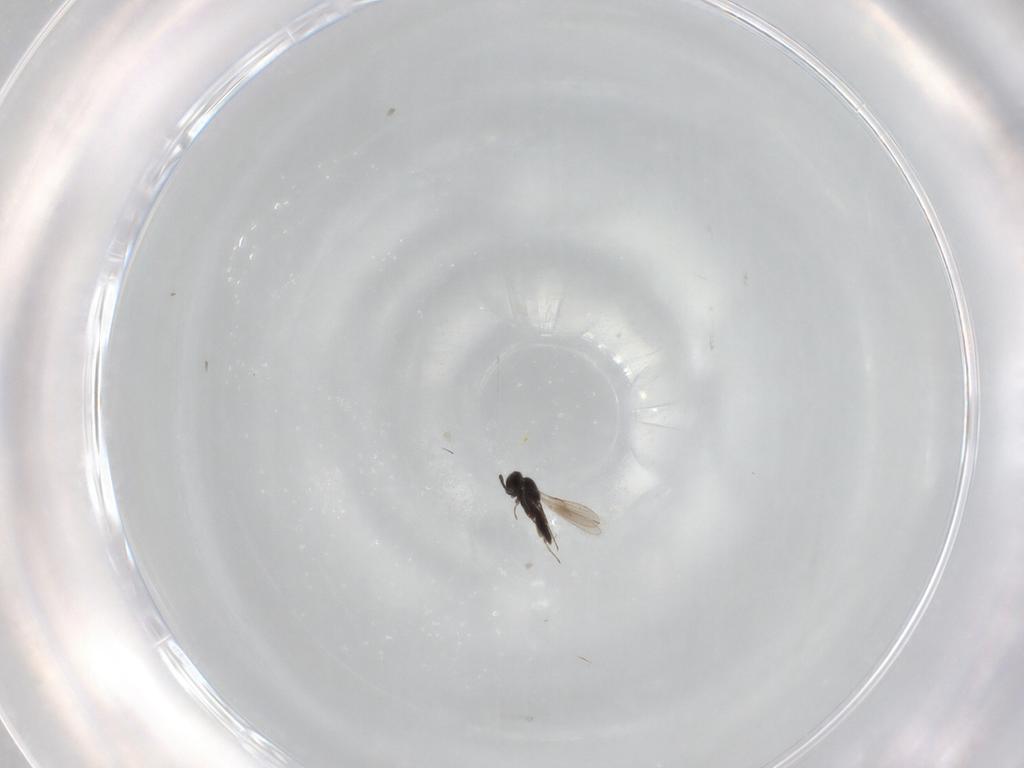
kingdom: Animalia
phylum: Arthropoda
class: Insecta
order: Hymenoptera
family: Scelionidae
